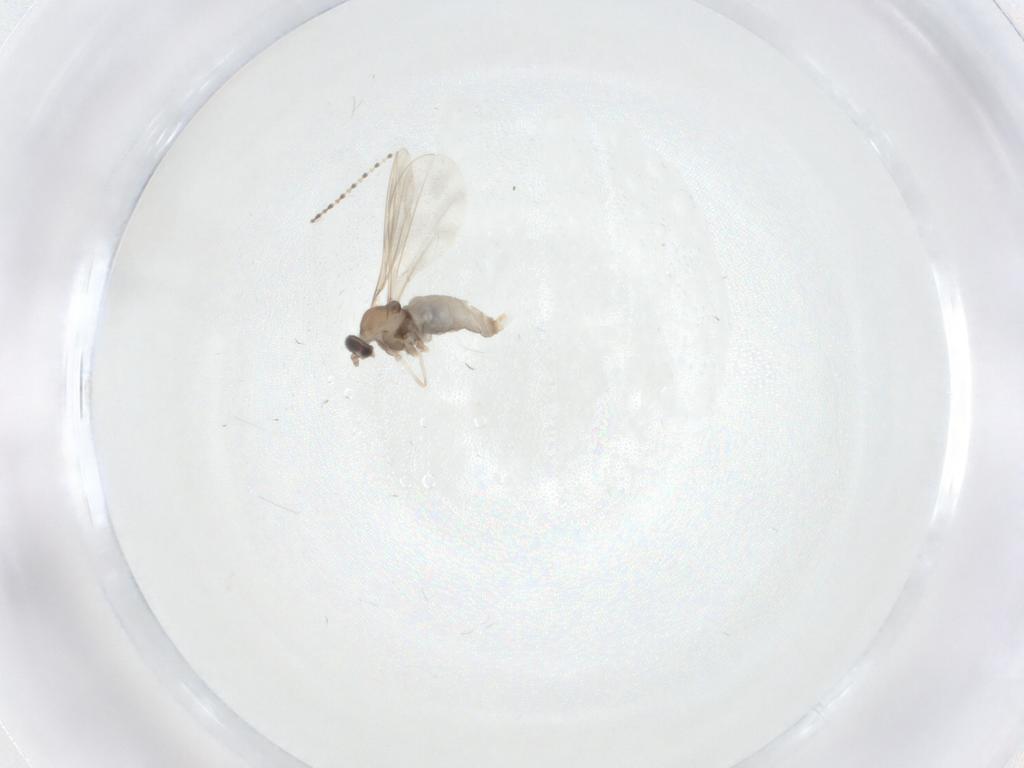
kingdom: Animalia
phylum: Arthropoda
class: Insecta
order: Diptera
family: Cecidomyiidae
